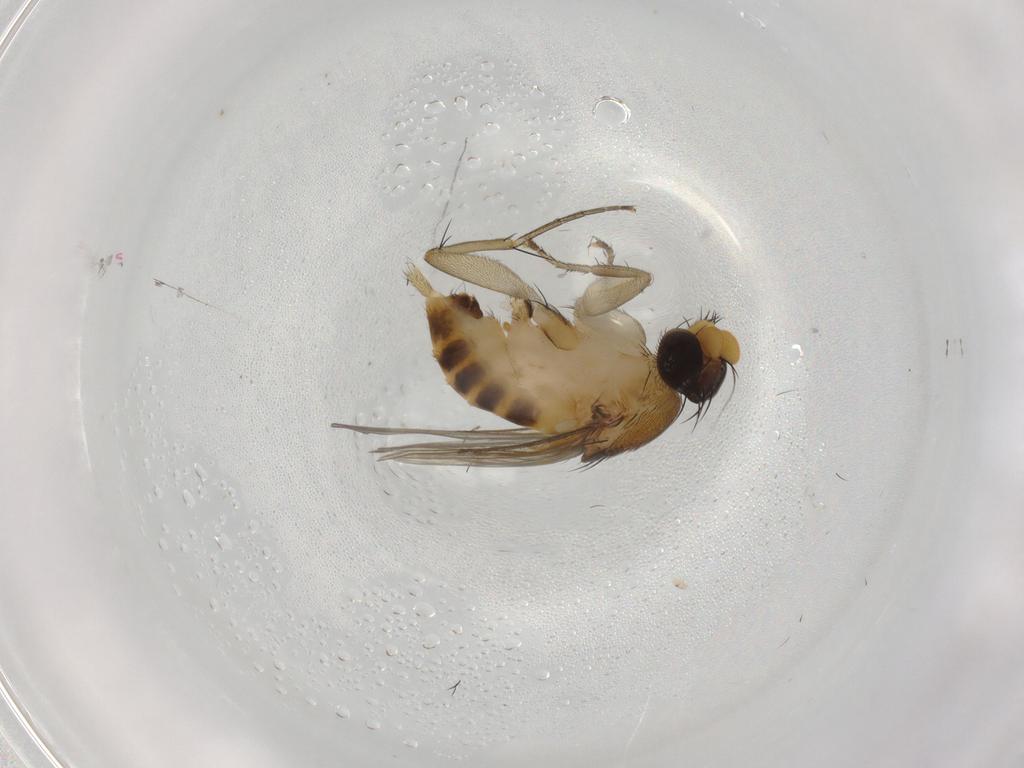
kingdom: Animalia
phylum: Arthropoda
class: Insecta
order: Diptera
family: Phoridae
